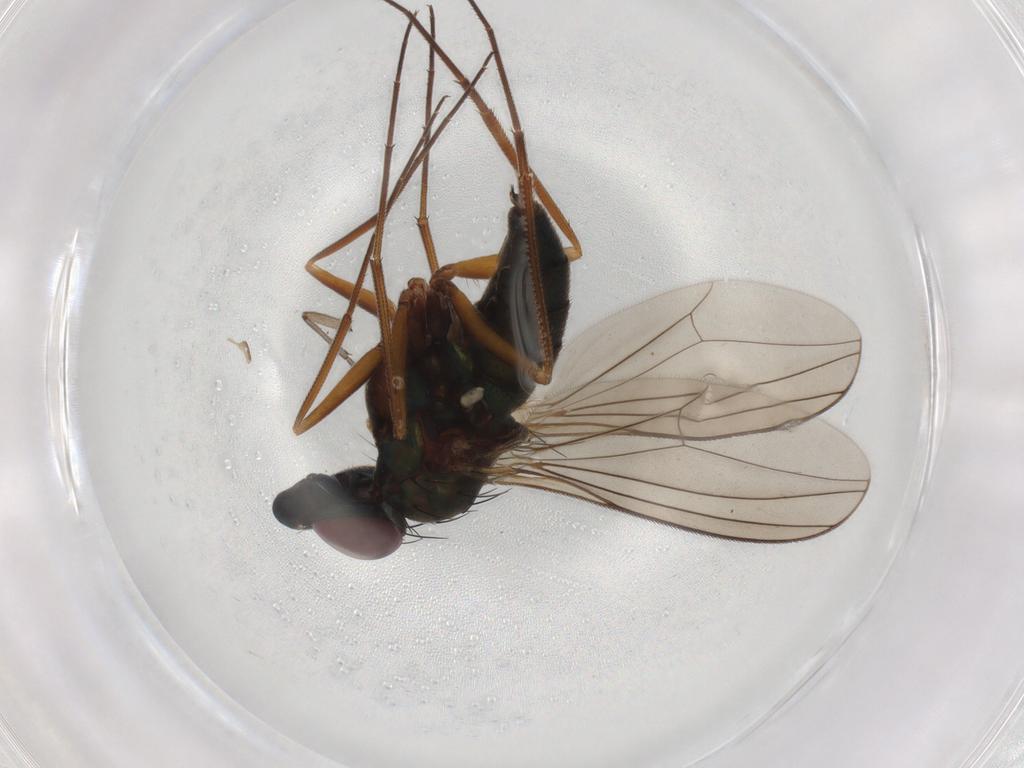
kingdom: Animalia
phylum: Arthropoda
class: Insecta
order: Diptera
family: Dolichopodidae
